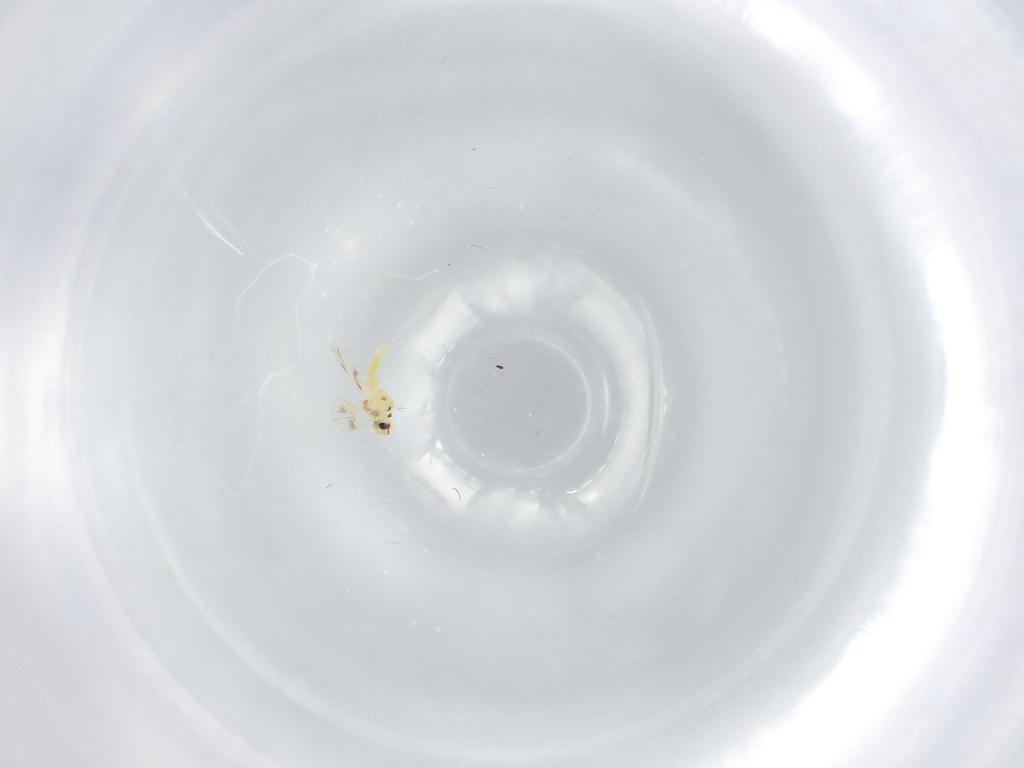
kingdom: Animalia
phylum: Arthropoda
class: Insecta
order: Hemiptera
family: Aleyrodidae
